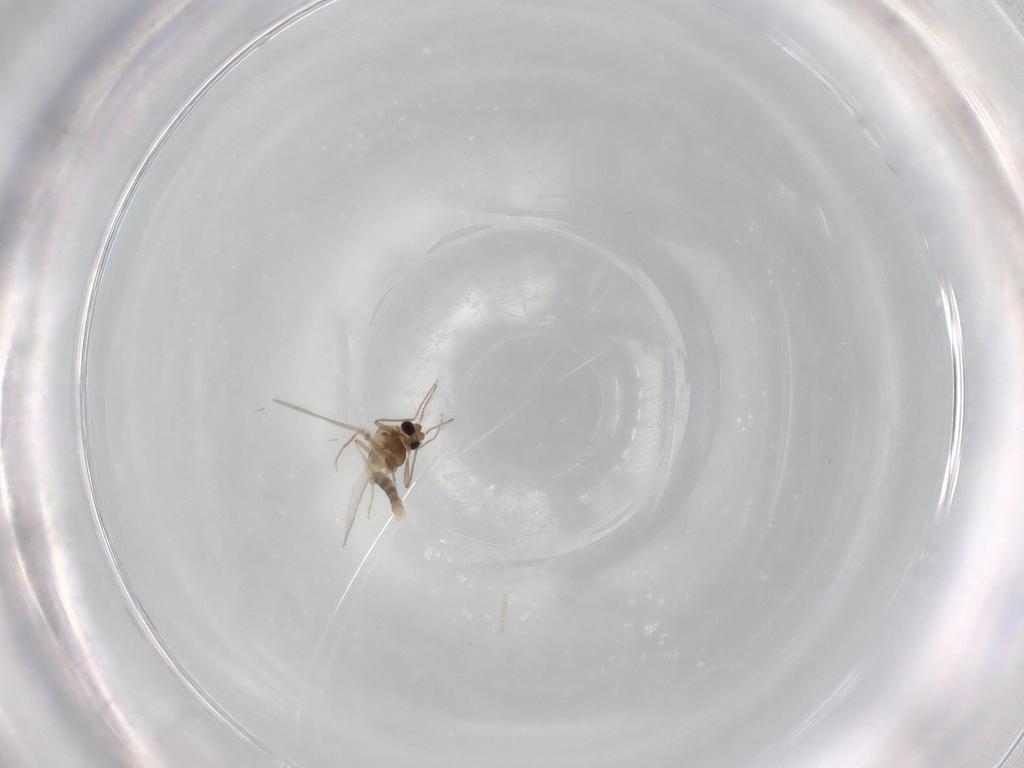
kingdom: Animalia
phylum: Arthropoda
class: Insecta
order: Diptera
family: Chironomidae
